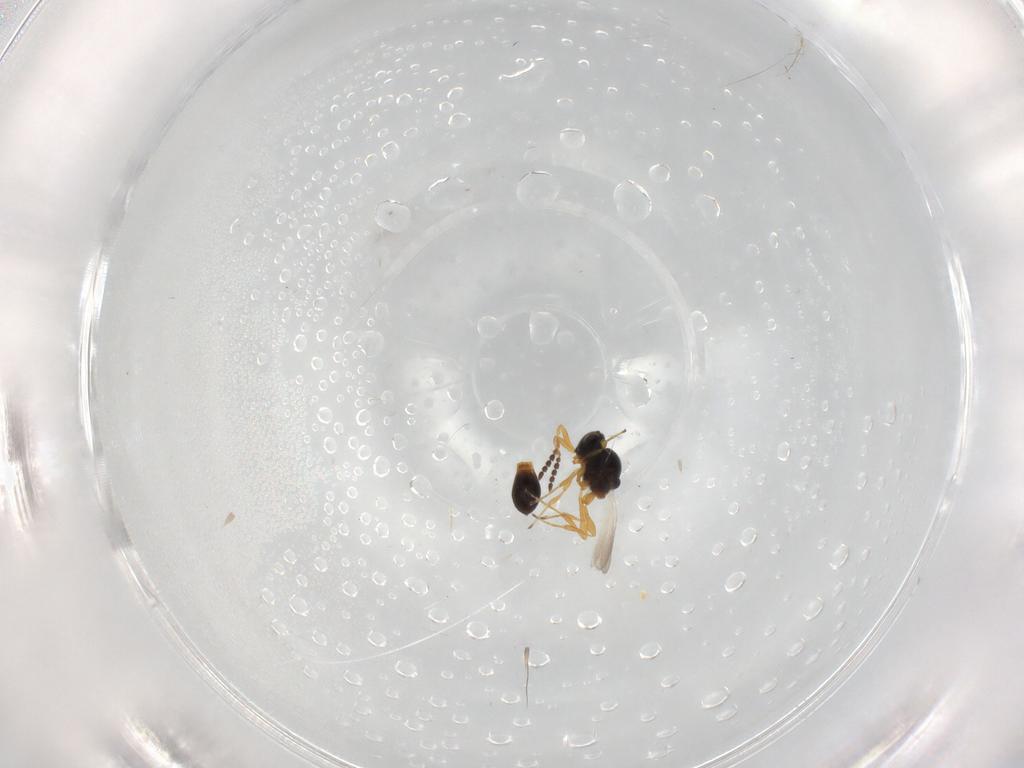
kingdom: Animalia
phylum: Arthropoda
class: Insecta
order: Hymenoptera
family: Platygastridae
